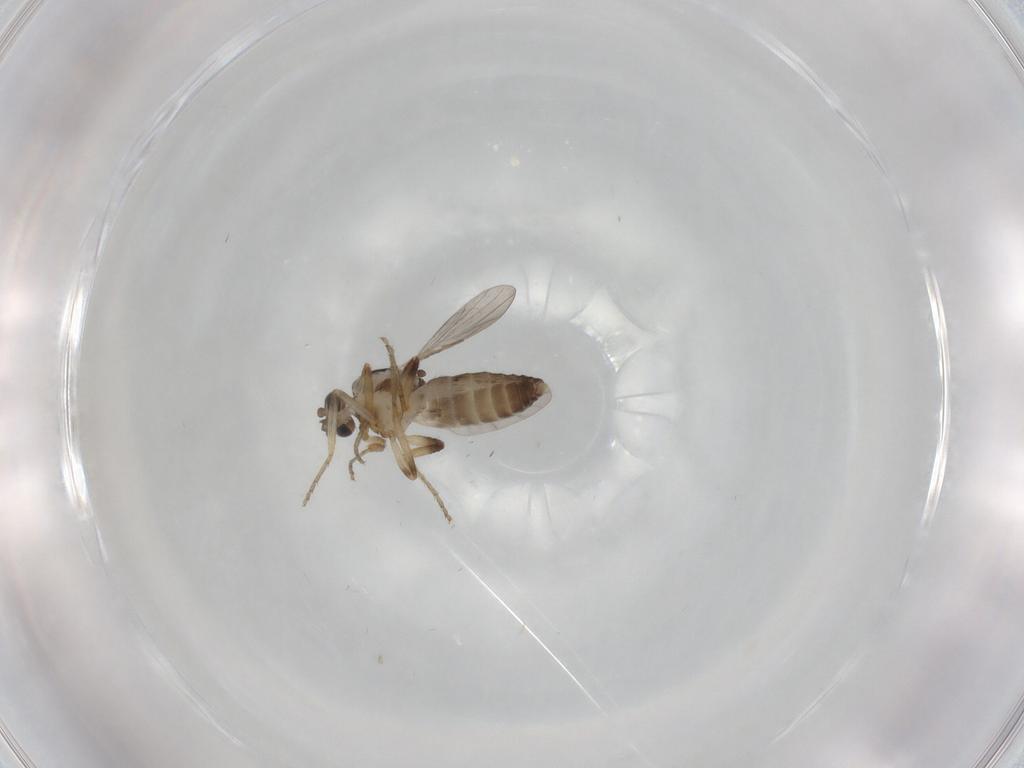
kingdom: Animalia
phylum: Arthropoda
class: Insecta
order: Diptera
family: Ceratopogonidae
